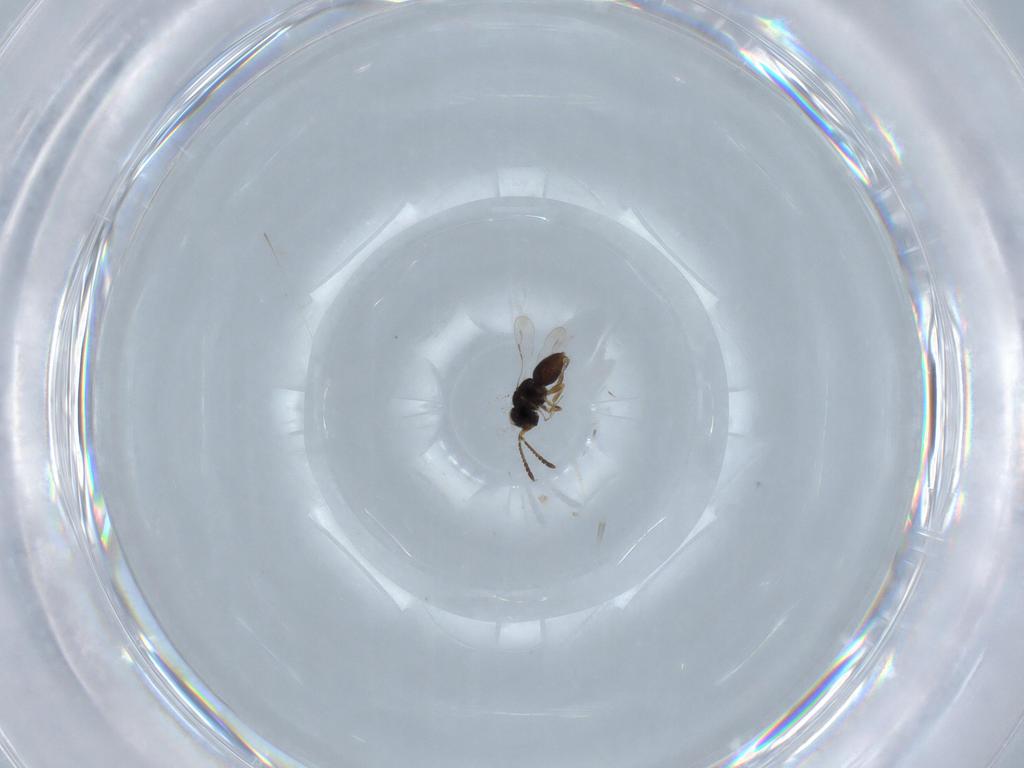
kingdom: Animalia
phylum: Arthropoda
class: Insecta
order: Hymenoptera
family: Mymaridae
